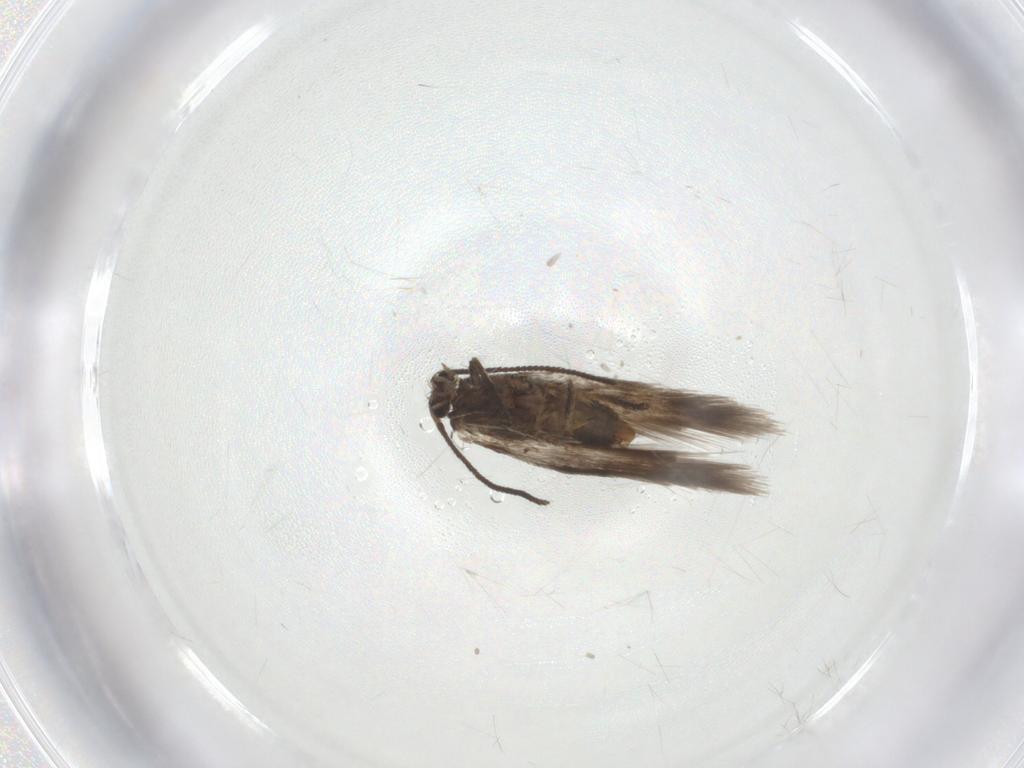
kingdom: Animalia
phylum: Arthropoda
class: Insecta
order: Lepidoptera
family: Nepticulidae
